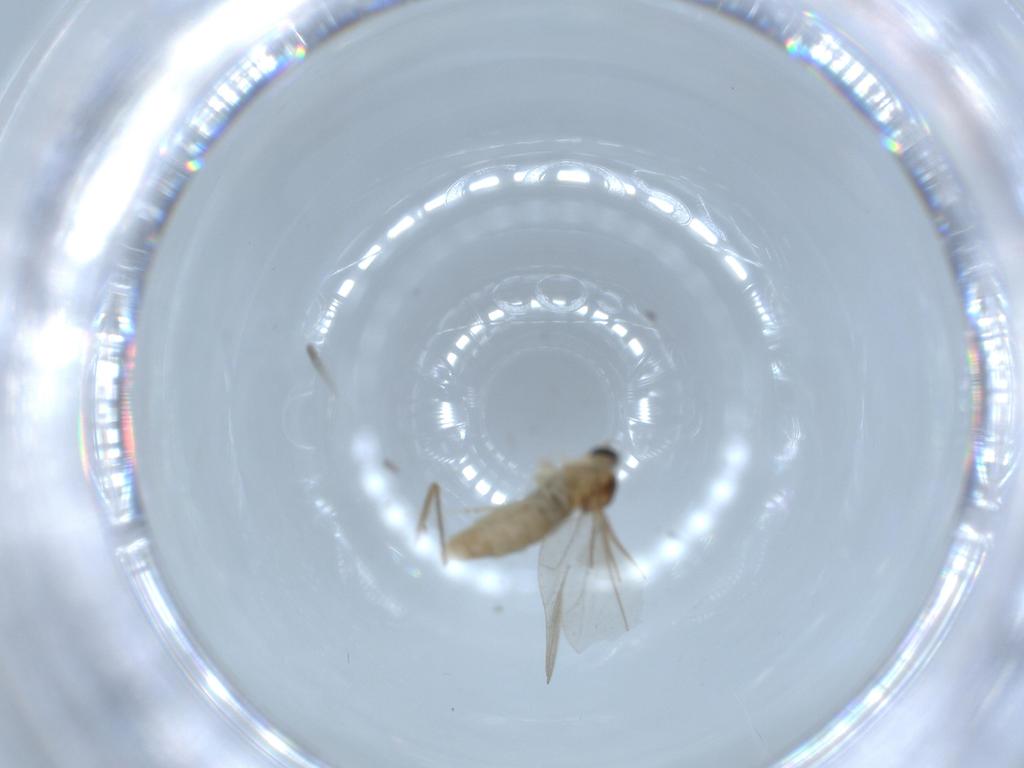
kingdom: Animalia
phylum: Arthropoda
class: Insecta
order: Diptera
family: Cecidomyiidae
